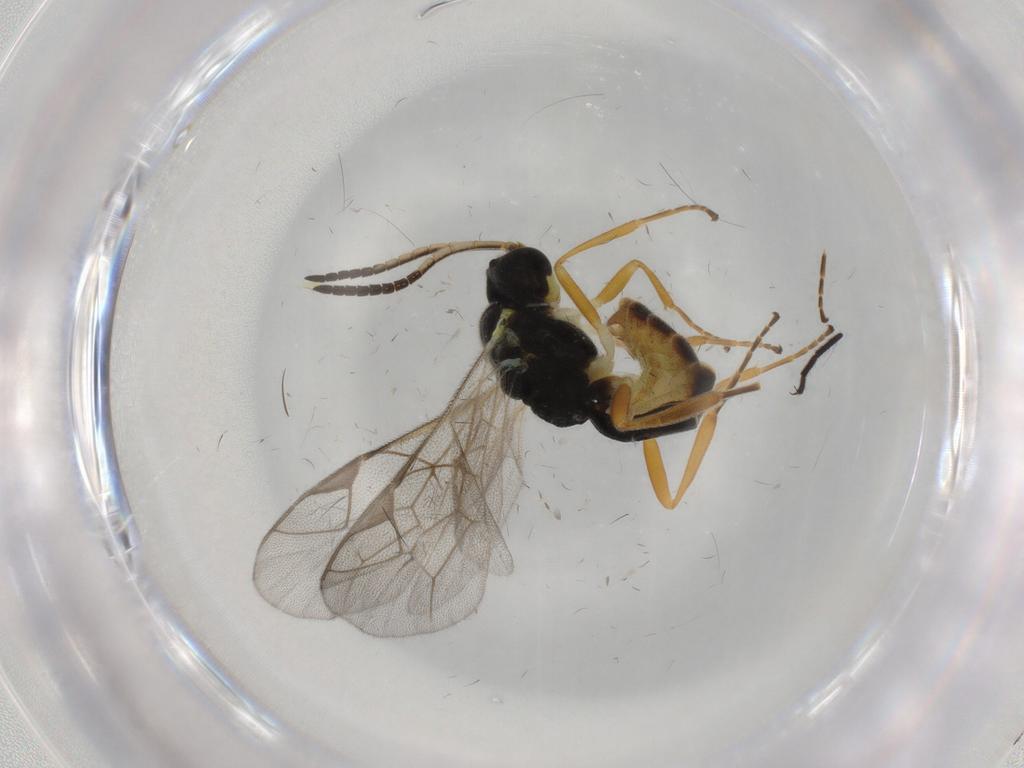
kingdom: Animalia
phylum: Arthropoda
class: Insecta
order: Hymenoptera
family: Ichneumonidae
